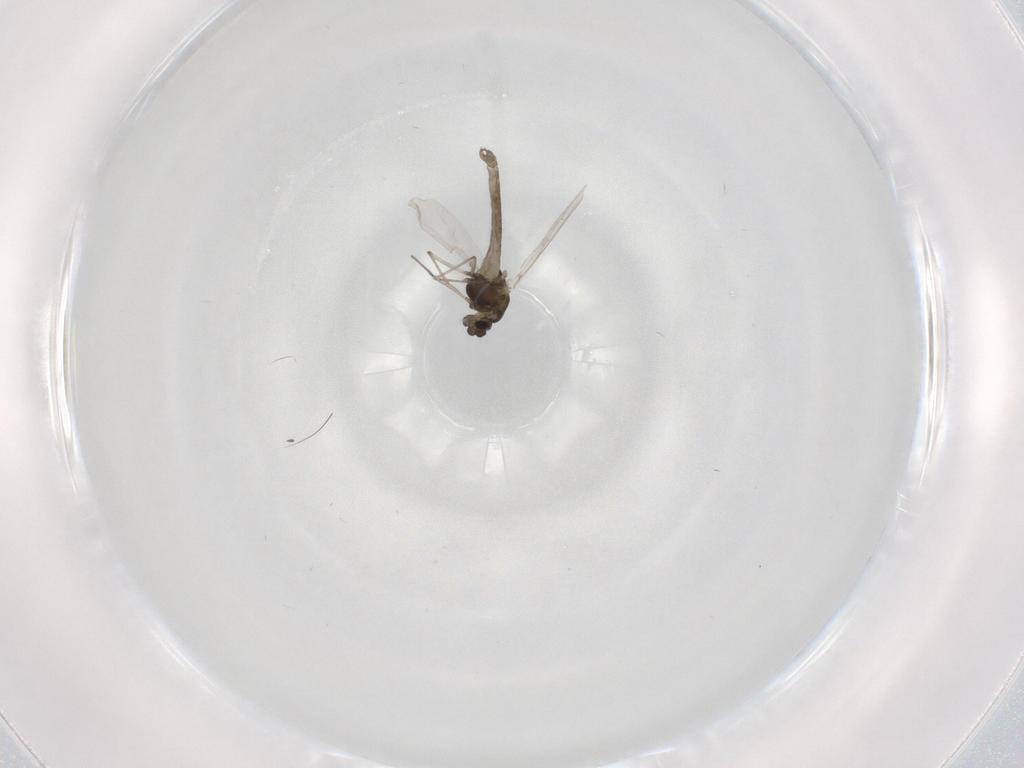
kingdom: Animalia
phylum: Arthropoda
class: Insecta
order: Diptera
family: Chironomidae
